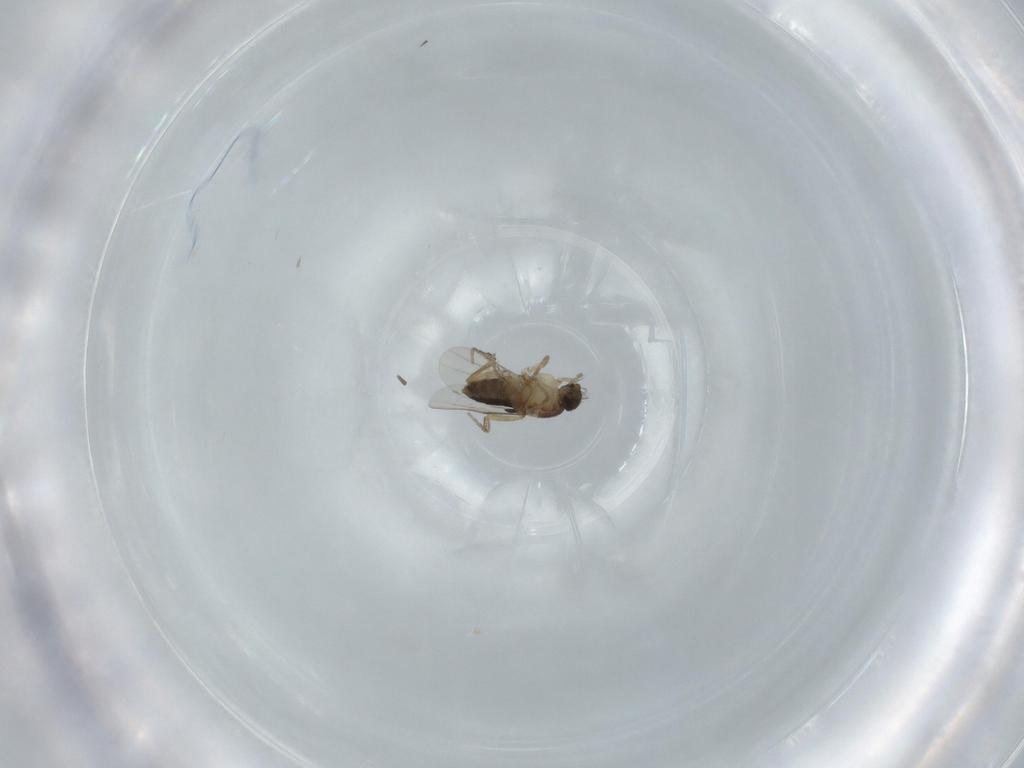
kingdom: Animalia
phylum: Arthropoda
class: Insecta
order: Diptera
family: Phoridae
